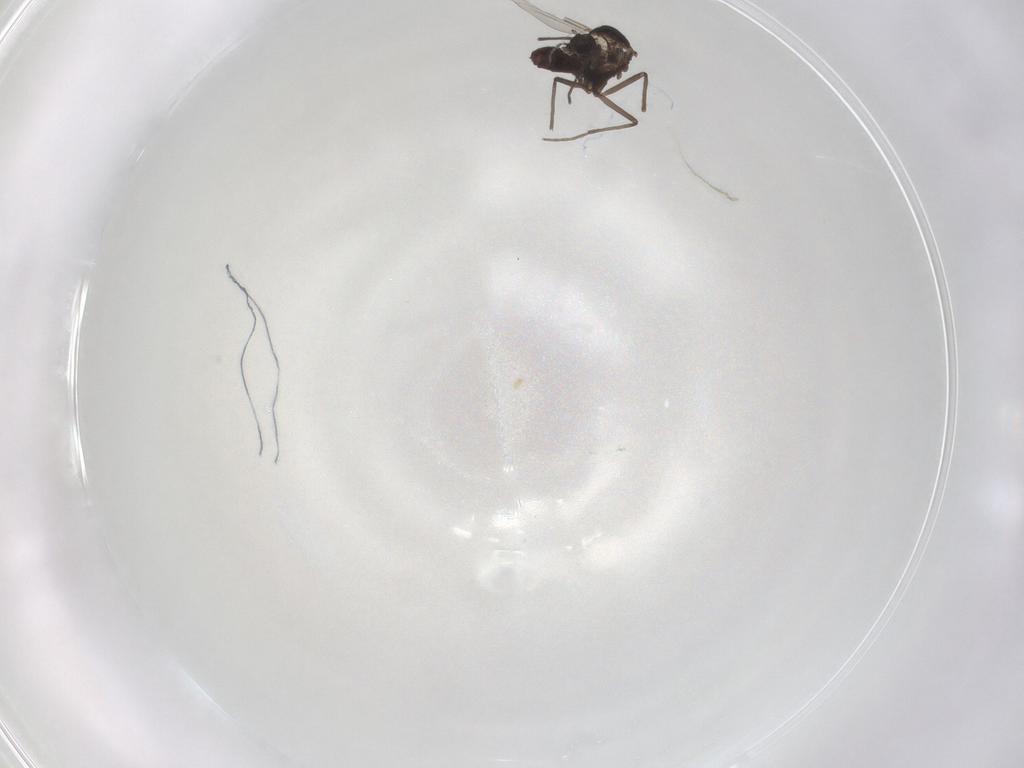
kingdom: Animalia
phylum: Arthropoda
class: Insecta
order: Diptera
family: Chironomidae
